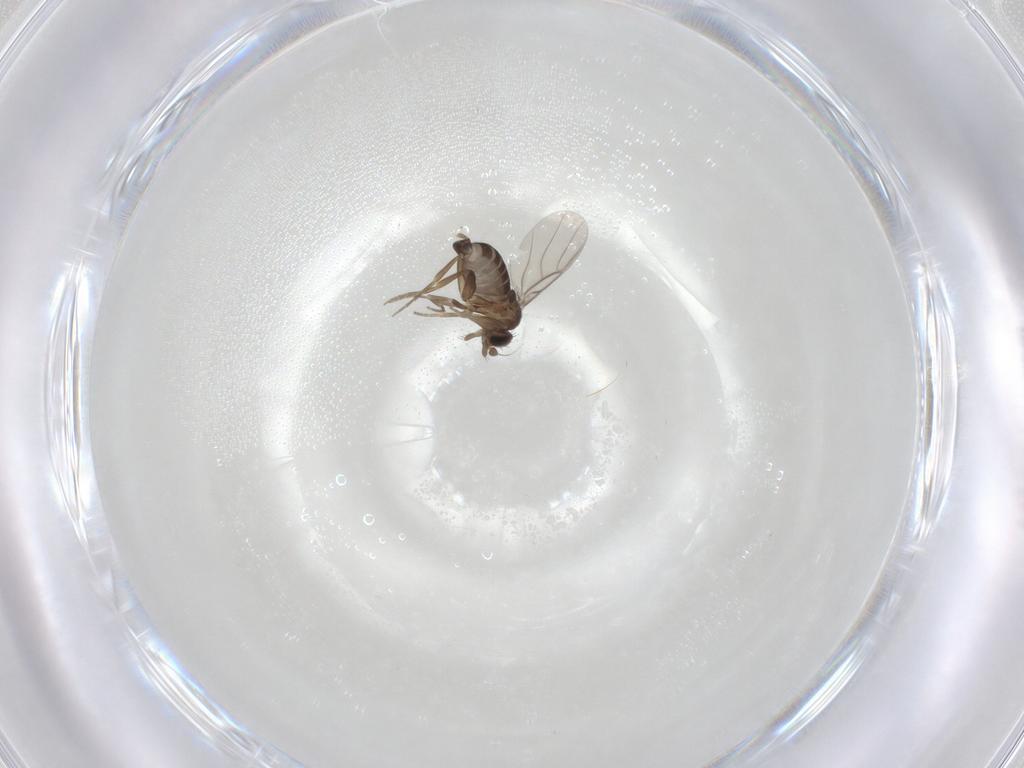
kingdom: Animalia
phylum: Arthropoda
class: Insecta
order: Diptera
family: Phoridae
